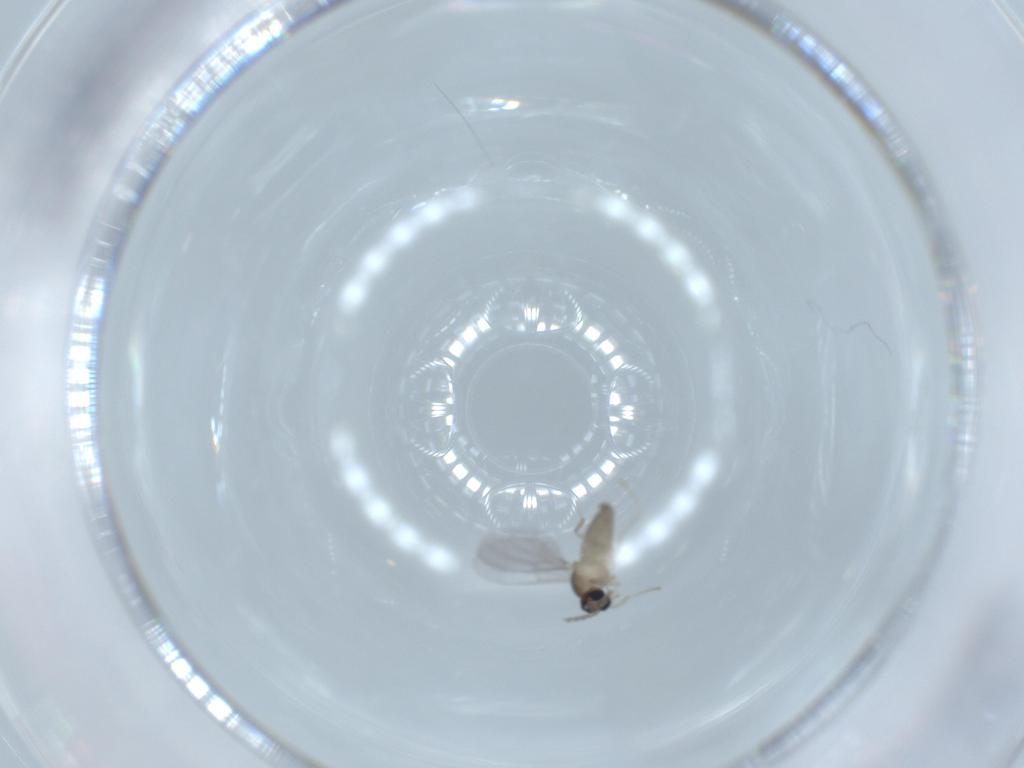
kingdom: Animalia
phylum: Arthropoda
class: Insecta
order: Diptera
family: Cecidomyiidae
